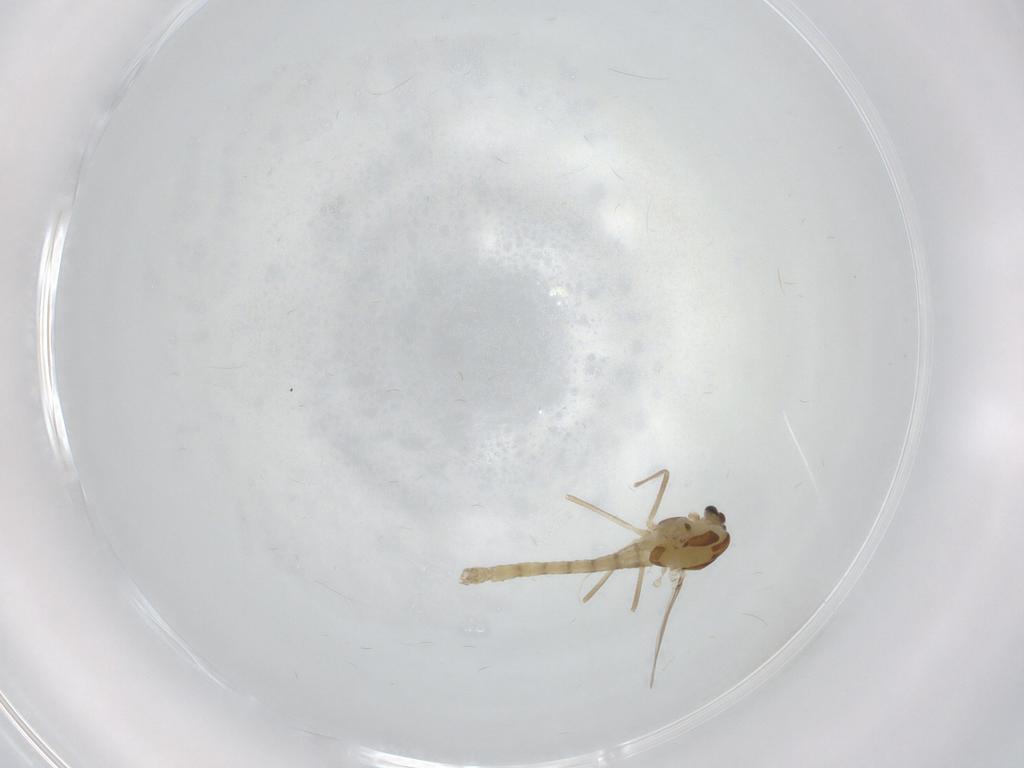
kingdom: Animalia
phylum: Arthropoda
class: Insecta
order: Diptera
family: Chironomidae
